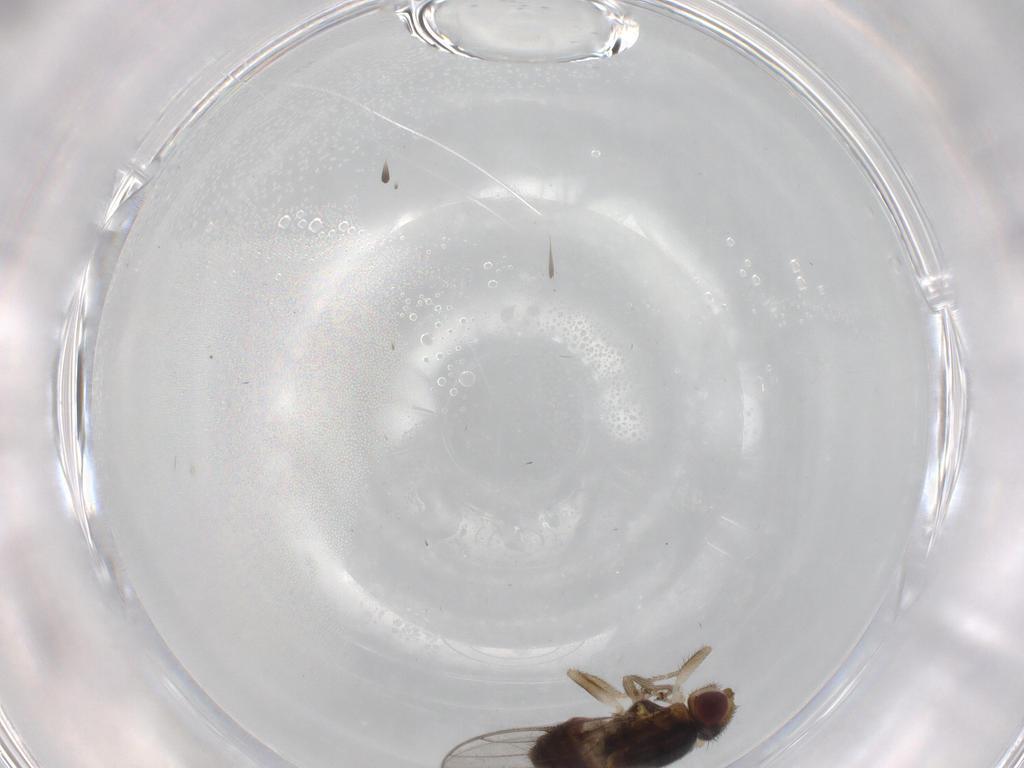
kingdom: Animalia
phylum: Arthropoda
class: Insecta
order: Diptera
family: Chloropidae
